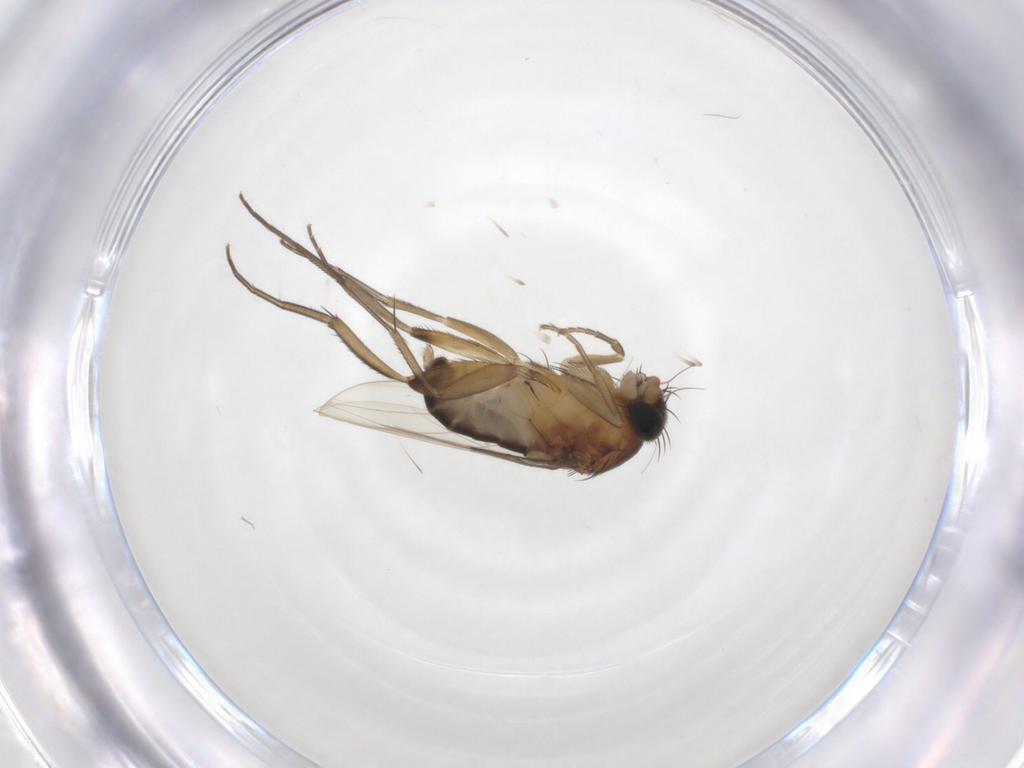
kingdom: Animalia
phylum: Arthropoda
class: Insecta
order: Diptera
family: Phoridae
